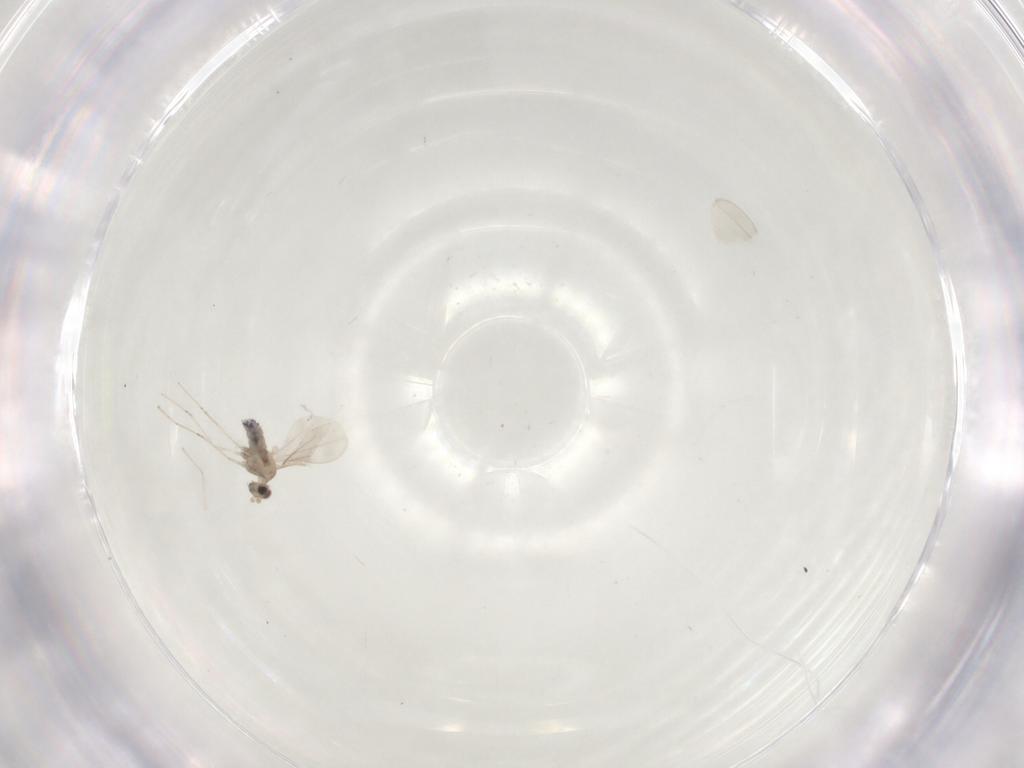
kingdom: Animalia
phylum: Arthropoda
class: Insecta
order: Diptera
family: Cecidomyiidae
